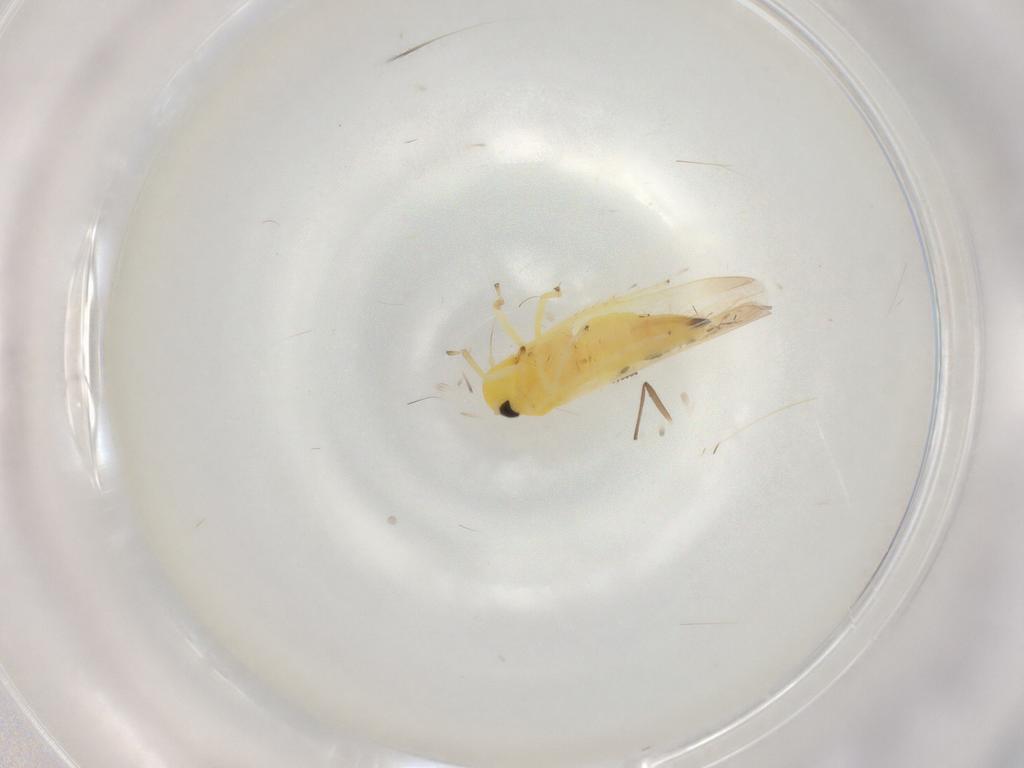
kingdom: Animalia
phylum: Arthropoda
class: Insecta
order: Hemiptera
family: Cicadellidae
